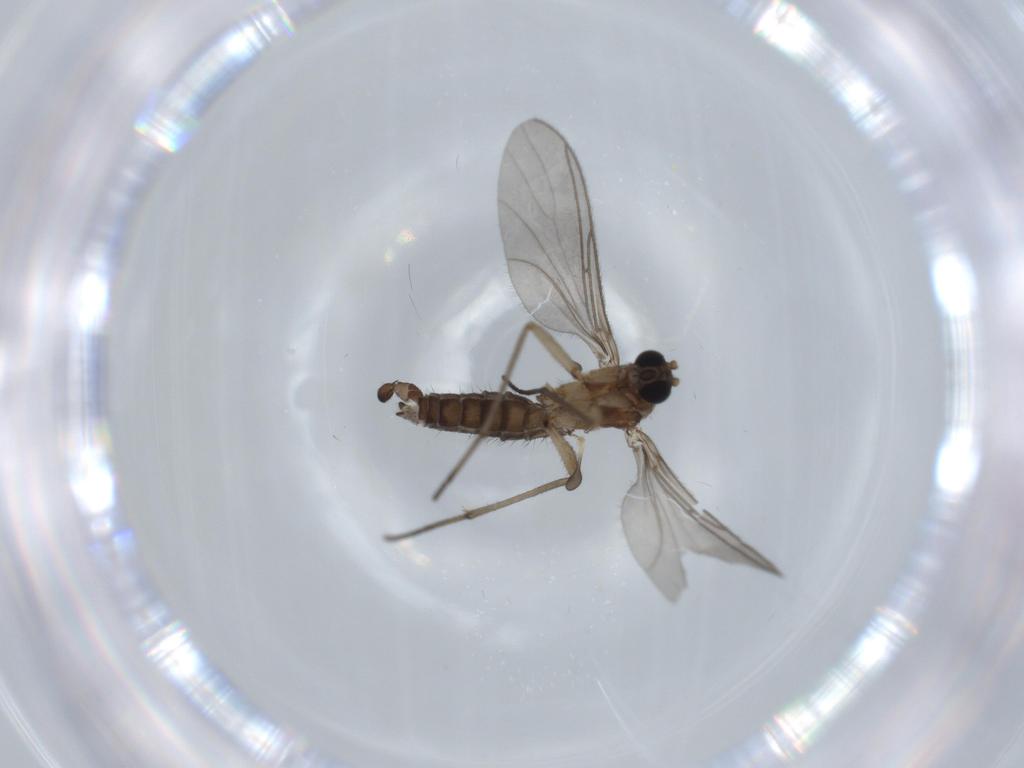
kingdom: Animalia
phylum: Arthropoda
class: Insecta
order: Diptera
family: Sciaridae
